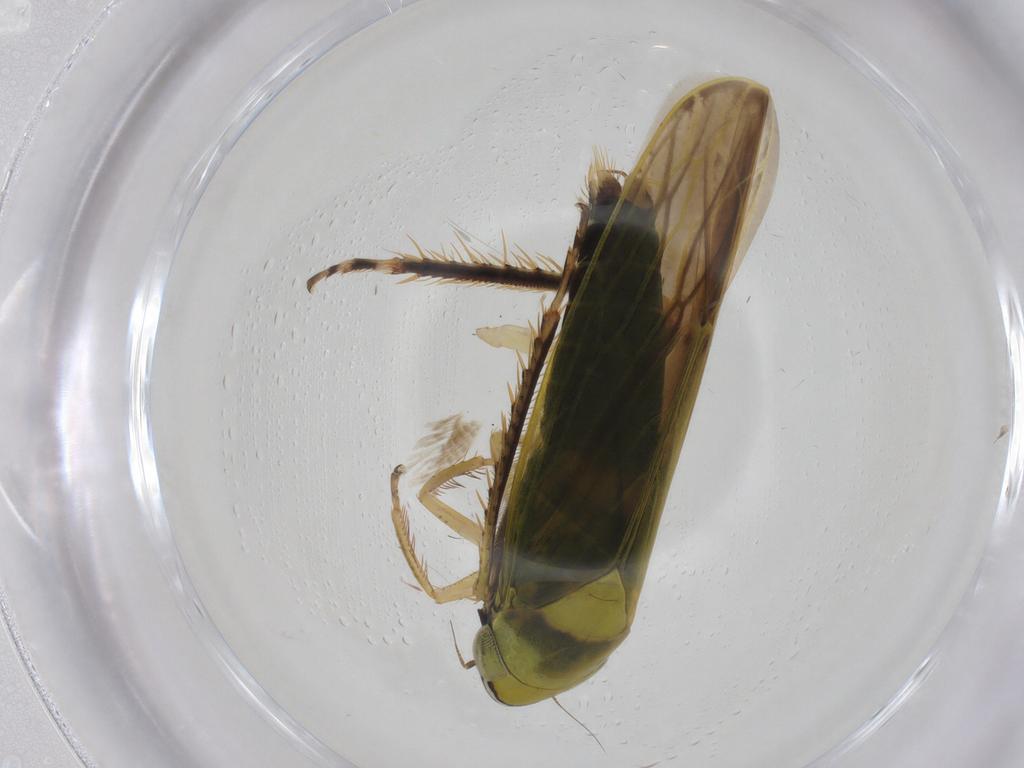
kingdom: Animalia
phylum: Arthropoda
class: Insecta
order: Hemiptera
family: Cicadellidae
